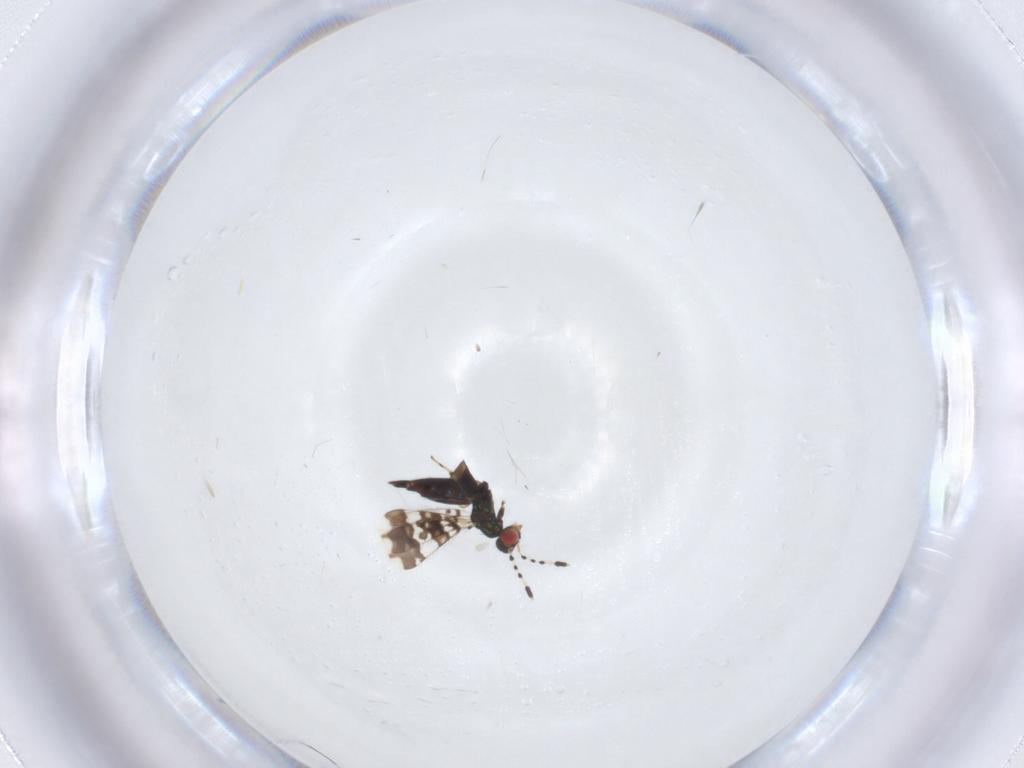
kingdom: Animalia
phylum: Arthropoda
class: Insecta
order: Hymenoptera
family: Eulophidae
